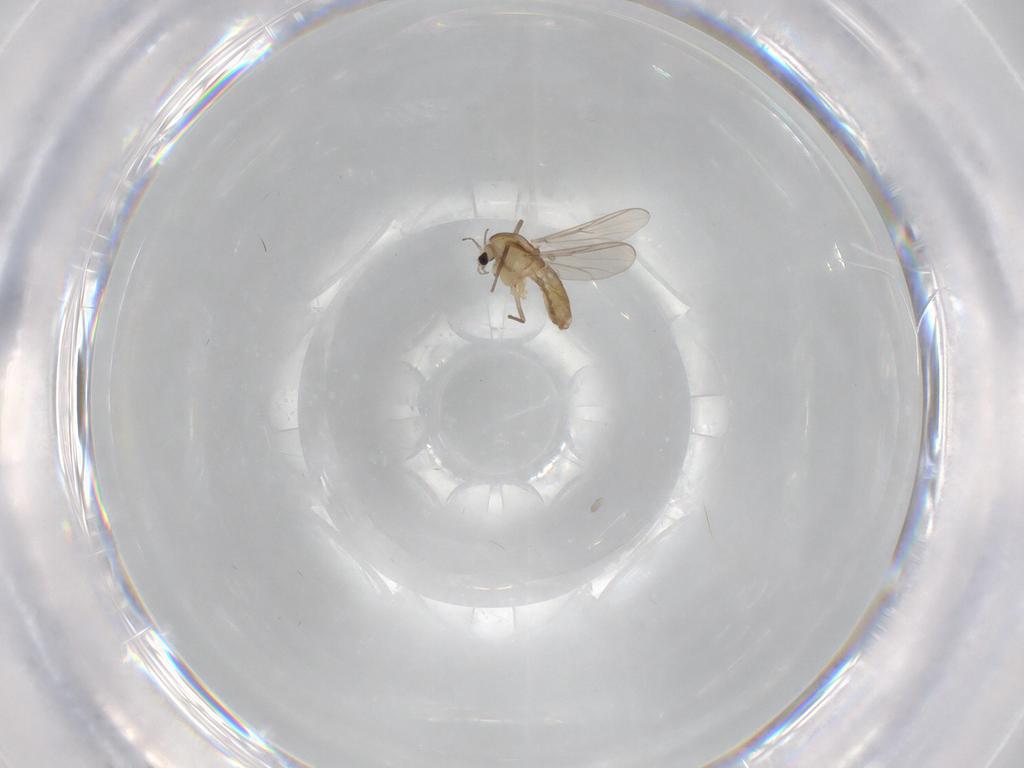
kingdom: Animalia
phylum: Arthropoda
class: Insecta
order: Diptera
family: Chironomidae
